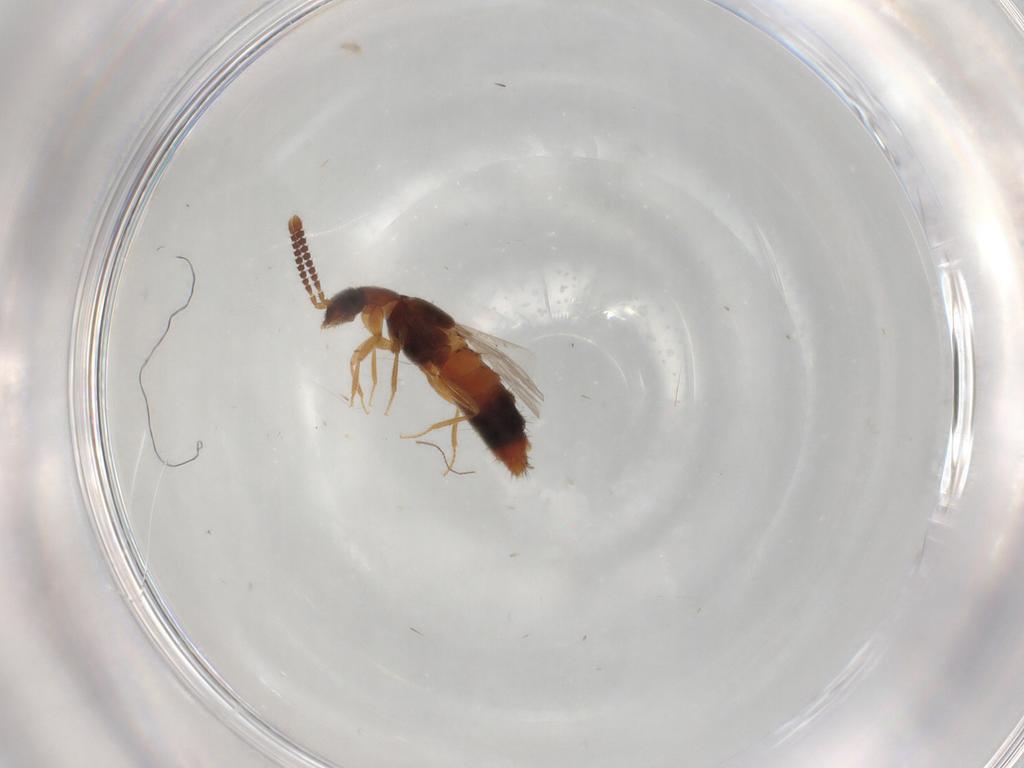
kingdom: Animalia
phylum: Arthropoda
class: Insecta
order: Coleoptera
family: Staphylinidae
